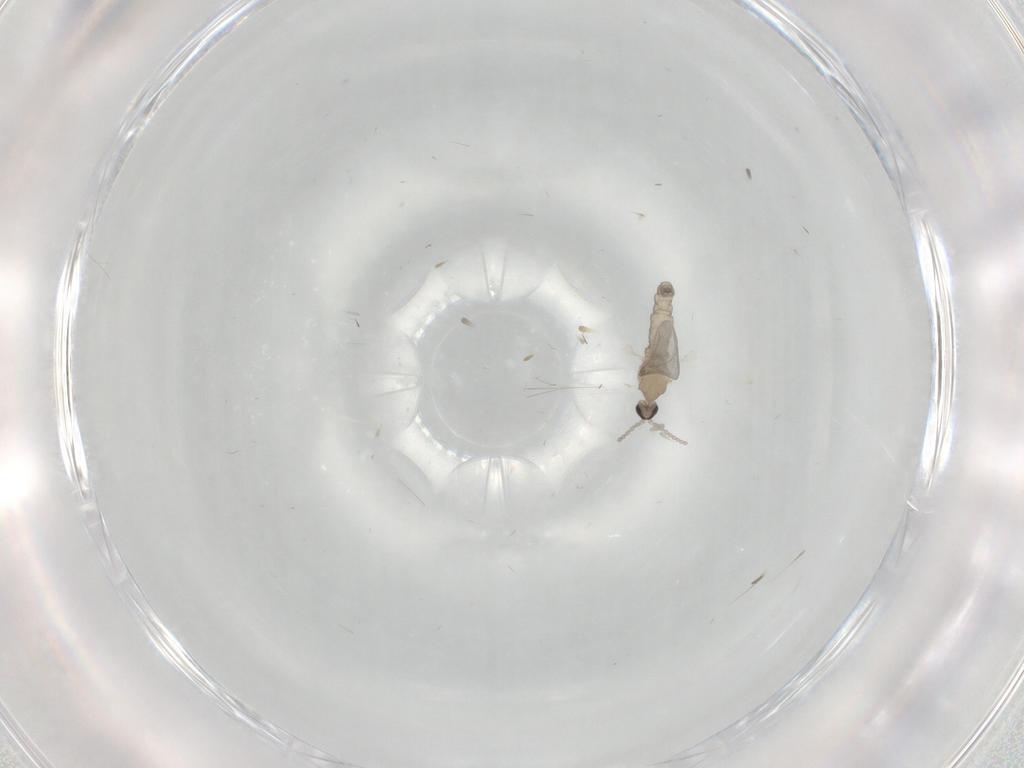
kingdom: Animalia
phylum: Arthropoda
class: Insecta
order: Diptera
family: Cecidomyiidae
